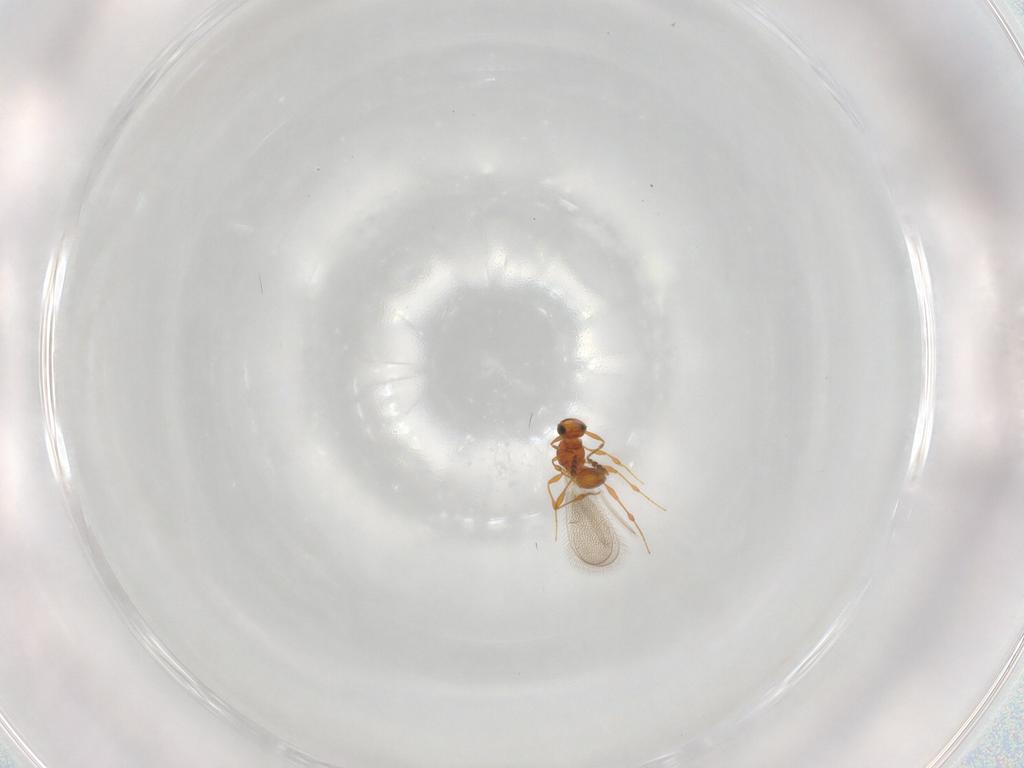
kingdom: Animalia
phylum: Arthropoda
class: Insecta
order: Hymenoptera
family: Platygastridae
